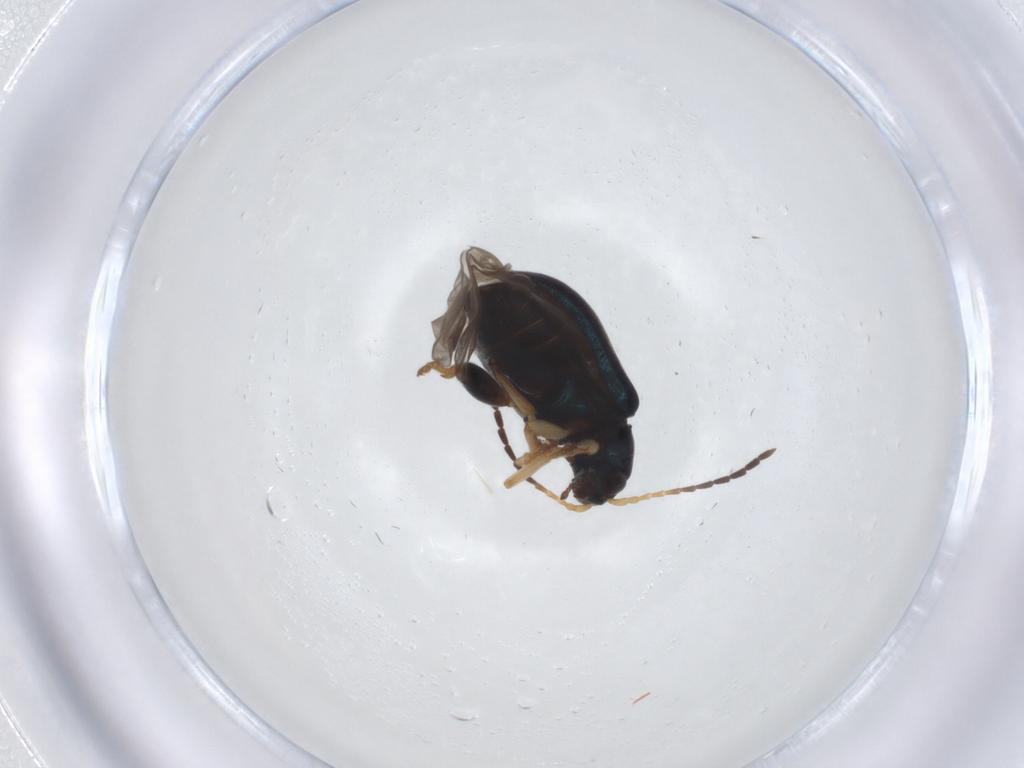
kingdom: Animalia
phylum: Arthropoda
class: Insecta
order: Coleoptera
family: Chrysomelidae
